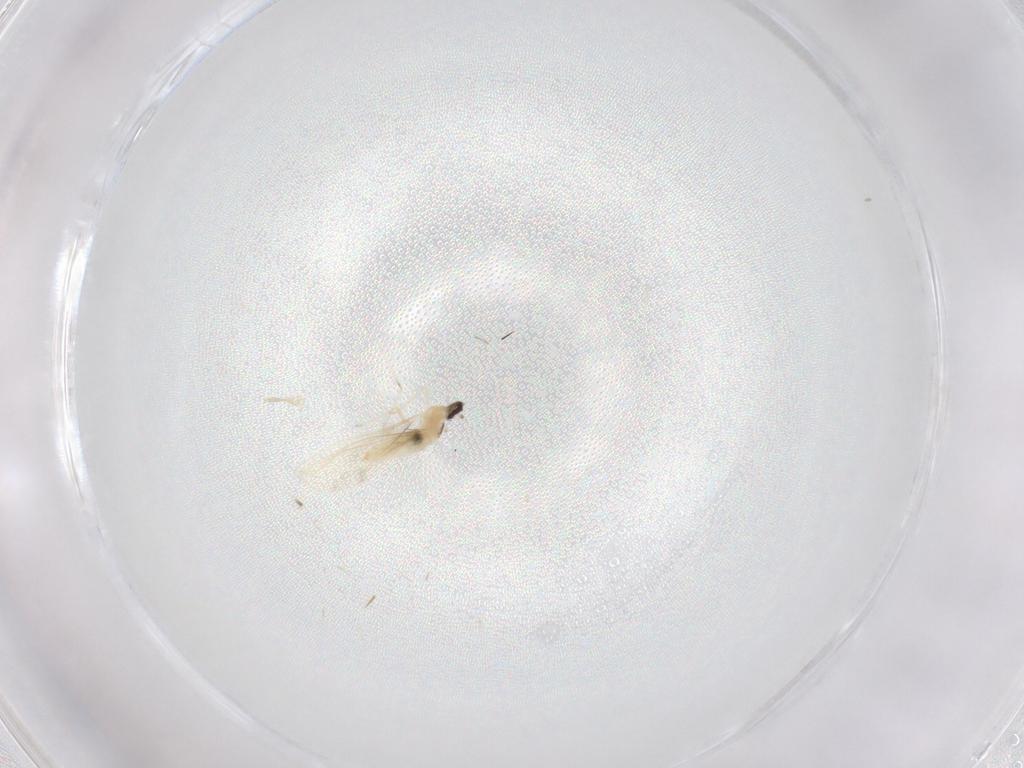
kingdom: Animalia
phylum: Arthropoda
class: Insecta
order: Diptera
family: Cecidomyiidae
